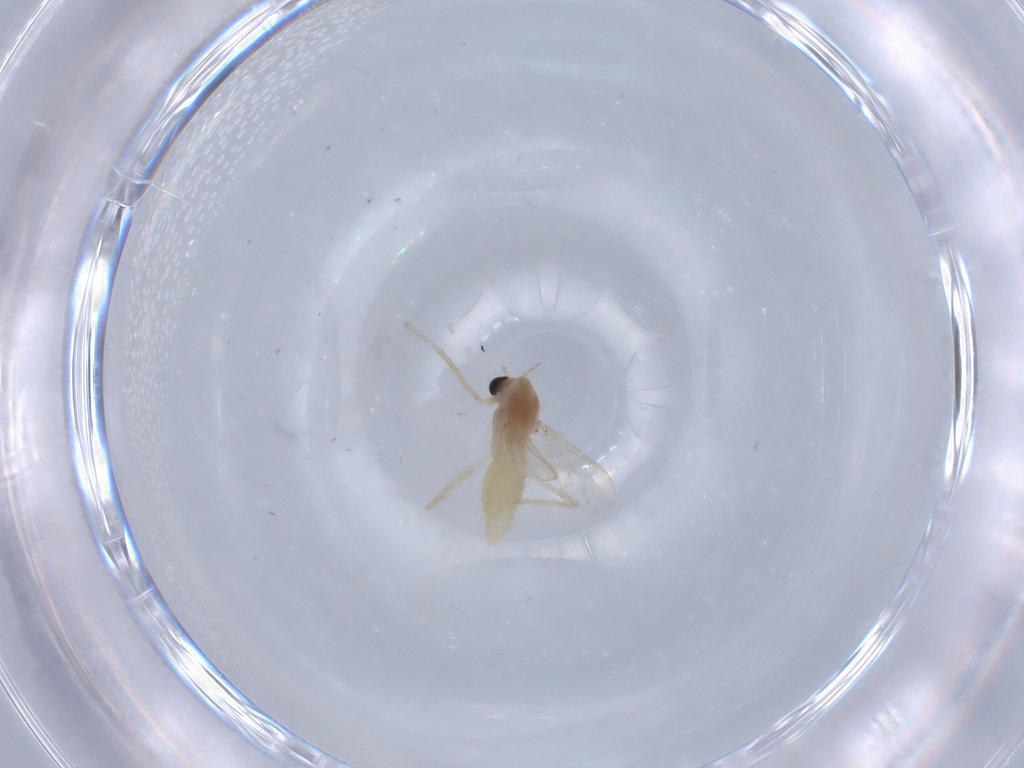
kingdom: Animalia
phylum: Arthropoda
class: Insecta
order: Diptera
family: Chironomidae
